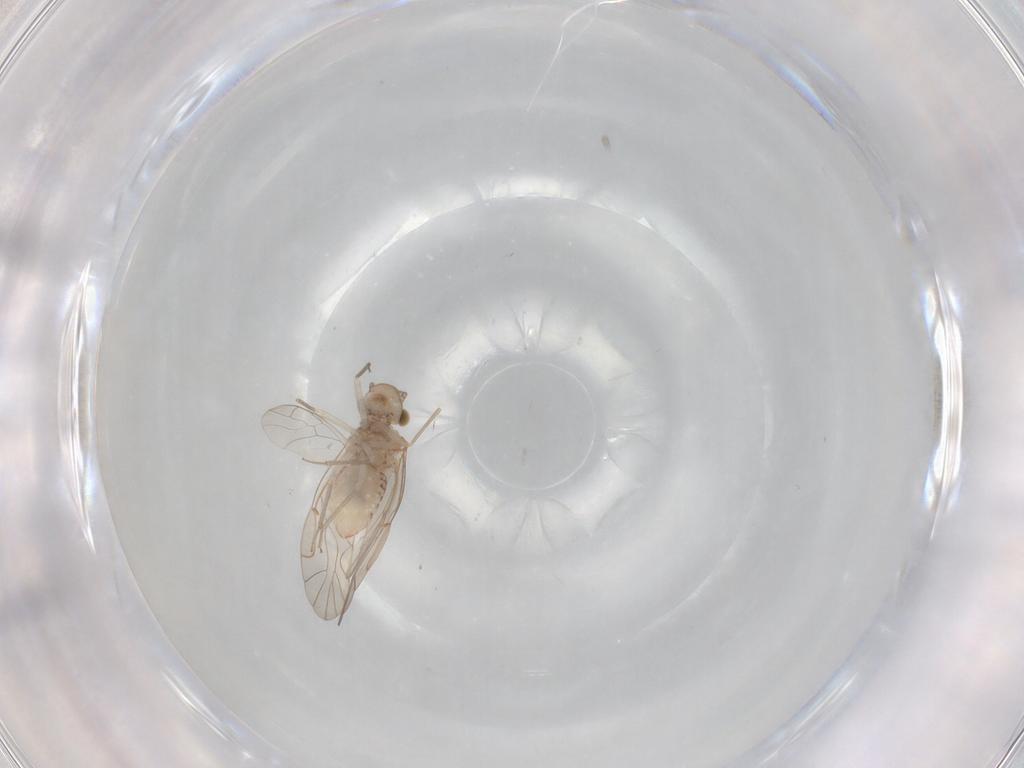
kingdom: Animalia
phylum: Arthropoda
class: Insecta
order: Psocodea
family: Lachesillidae
